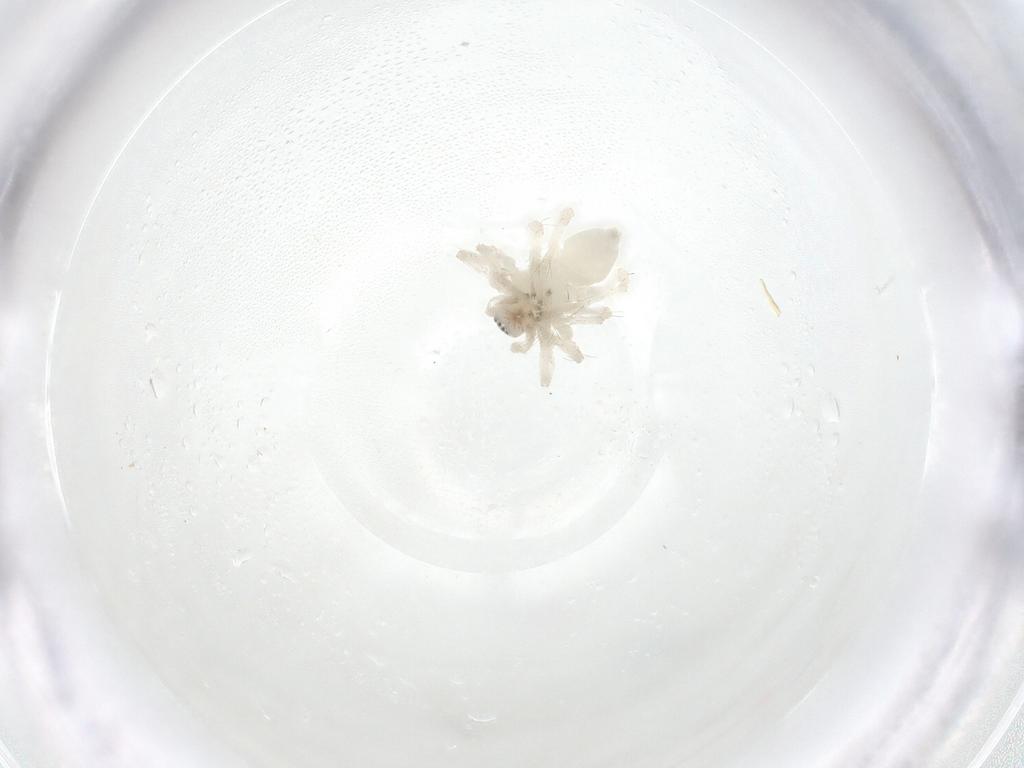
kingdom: Animalia
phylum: Arthropoda
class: Arachnida
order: Araneae
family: Anyphaenidae
